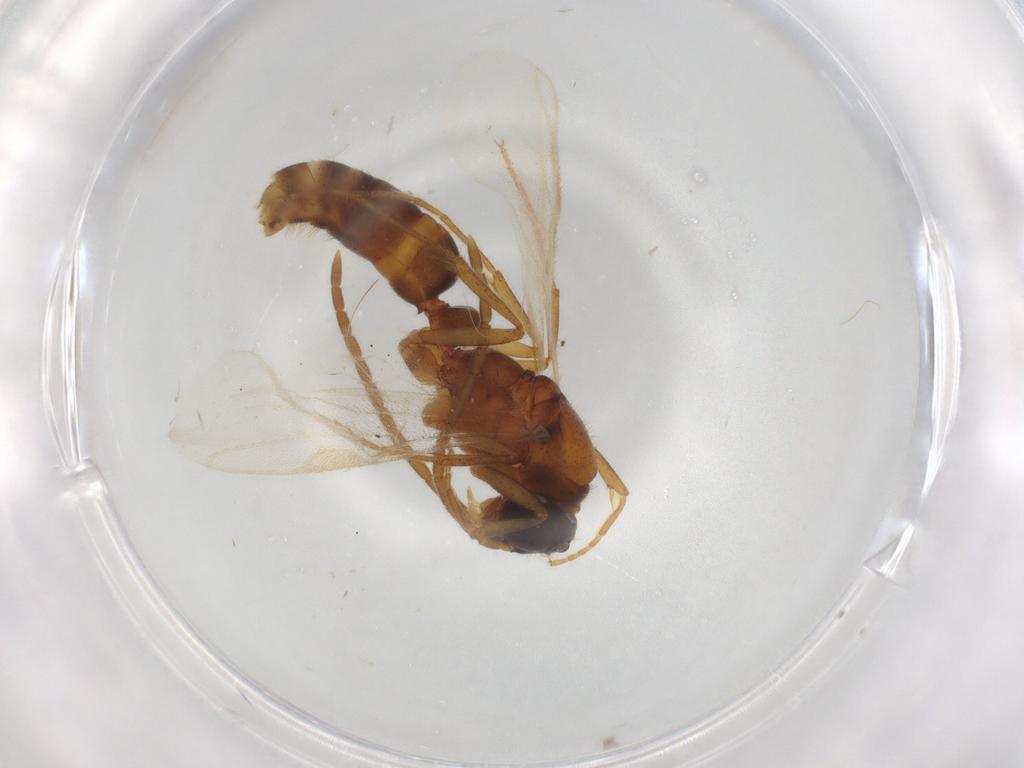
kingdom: Animalia
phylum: Arthropoda
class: Insecta
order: Hymenoptera
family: Formicidae
